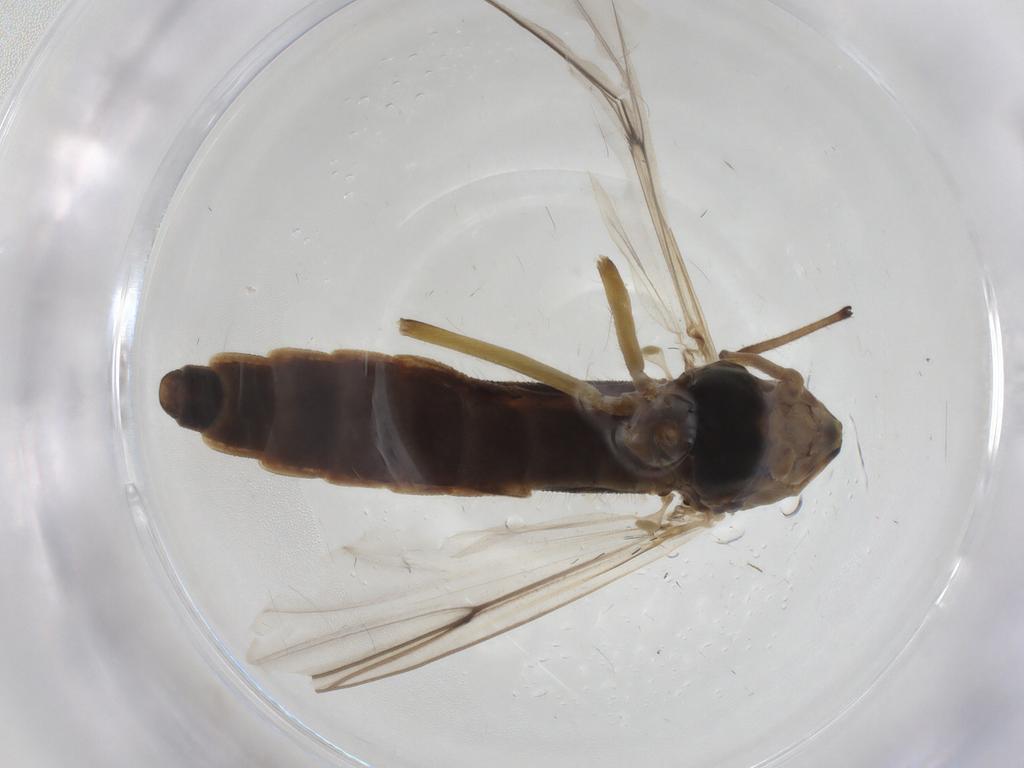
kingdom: Animalia
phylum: Arthropoda
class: Insecta
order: Diptera
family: Chironomidae
